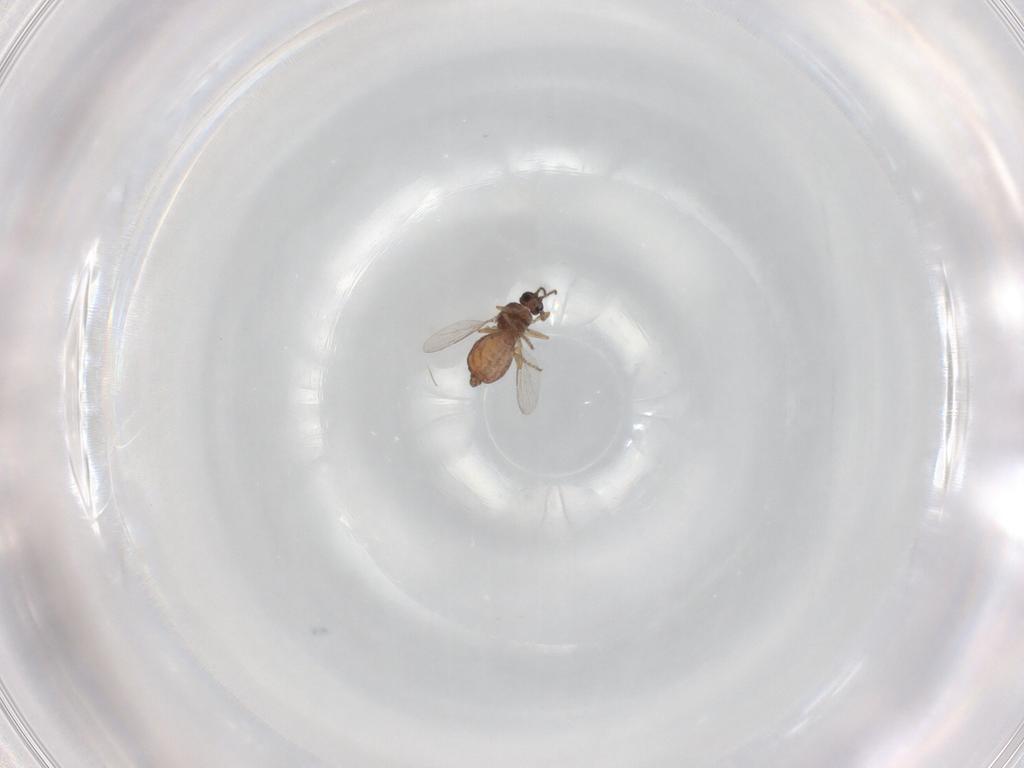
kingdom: Animalia
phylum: Arthropoda
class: Insecta
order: Diptera
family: Ceratopogonidae
